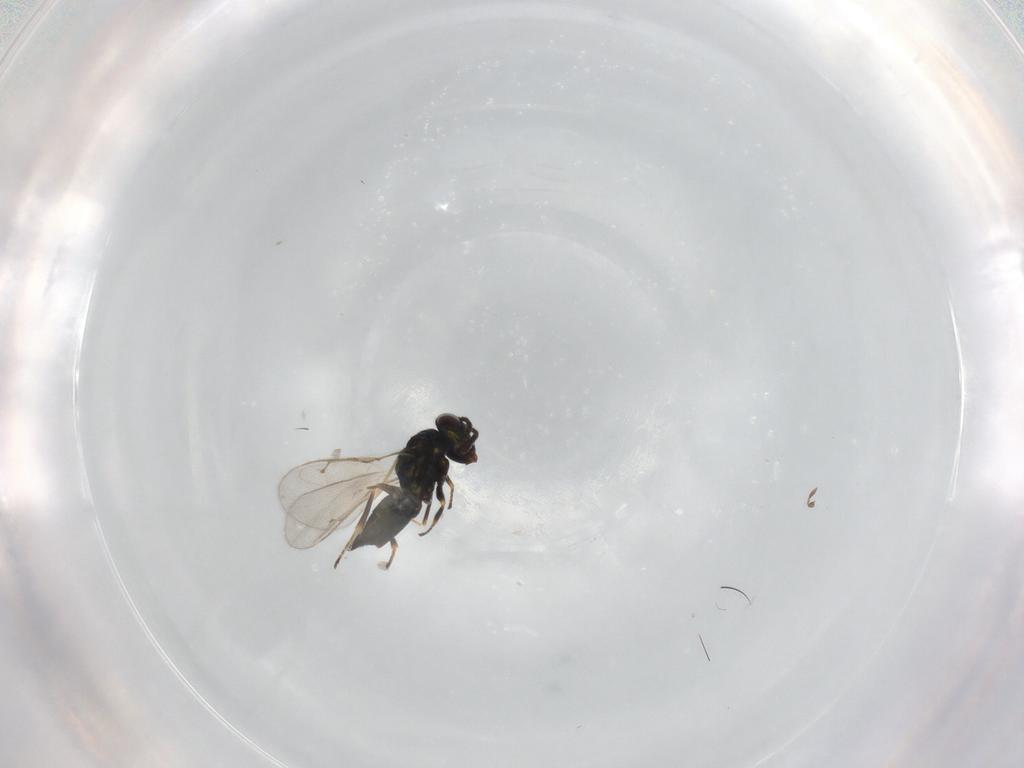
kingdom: Animalia
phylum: Arthropoda
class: Insecta
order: Hymenoptera
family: Pteromalidae
